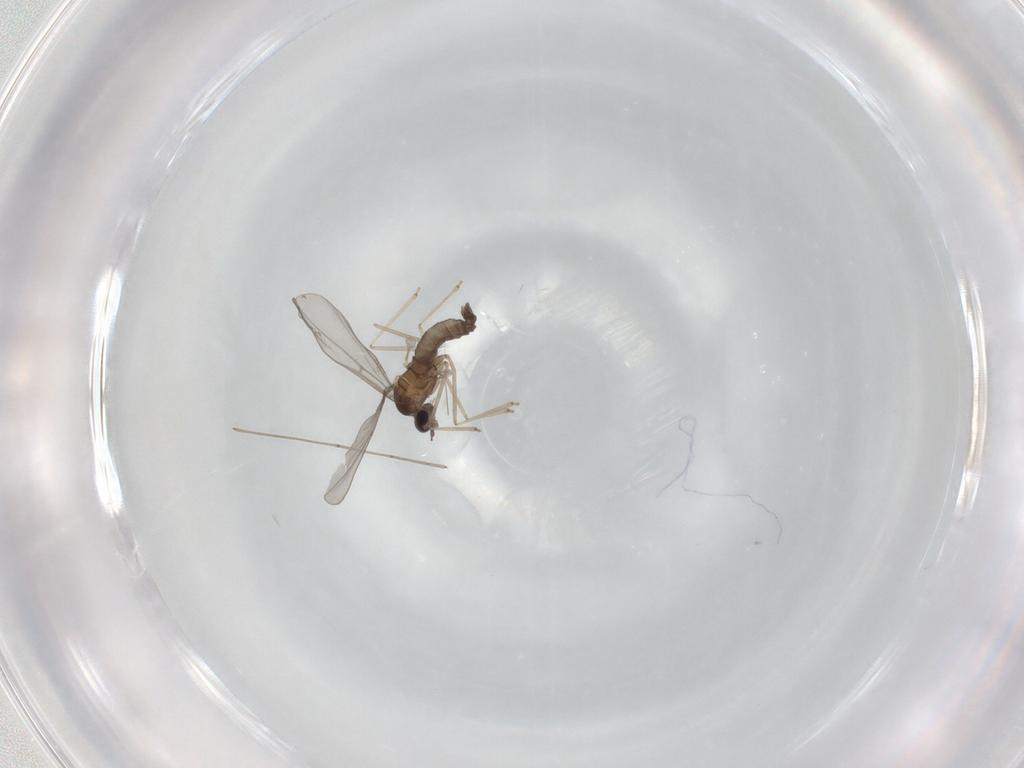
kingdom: Animalia
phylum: Arthropoda
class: Insecta
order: Diptera
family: Cecidomyiidae
